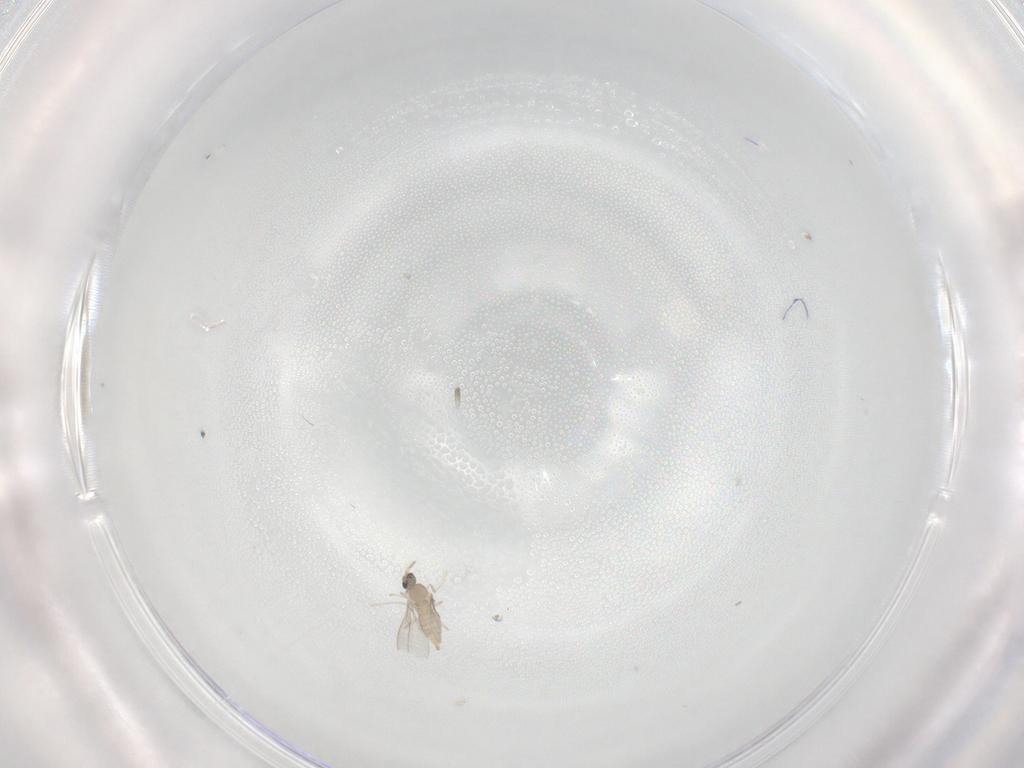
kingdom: Animalia
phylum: Arthropoda
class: Insecta
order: Diptera
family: Cecidomyiidae
